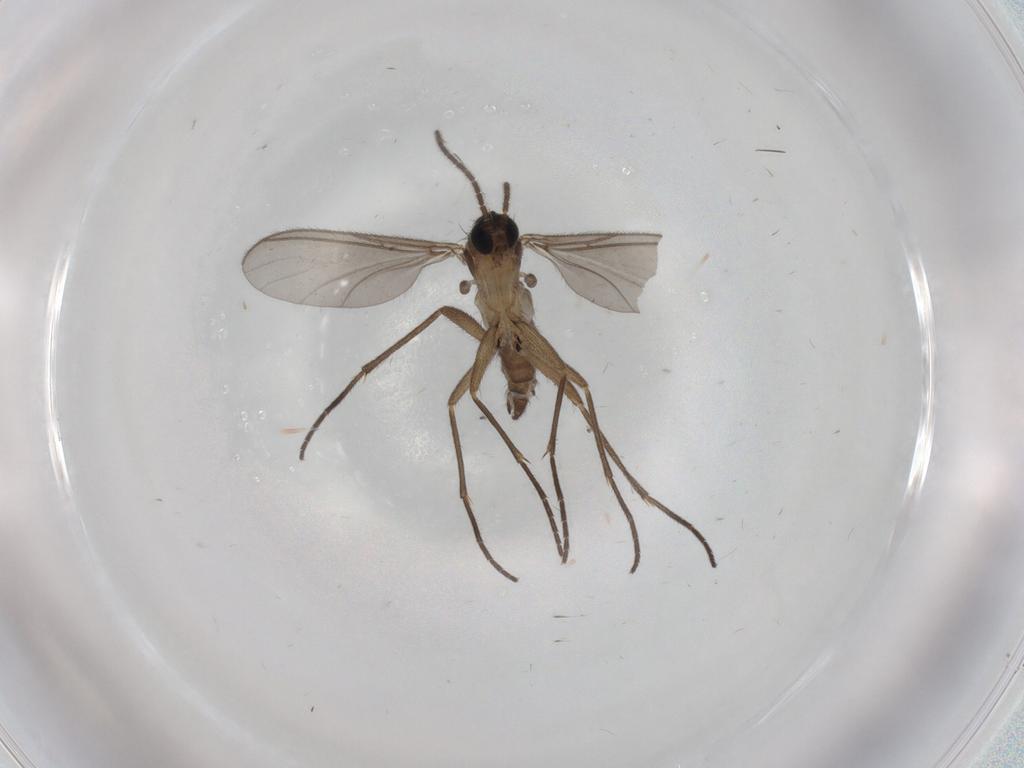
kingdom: Animalia
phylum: Arthropoda
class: Insecta
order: Diptera
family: Sciaridae
